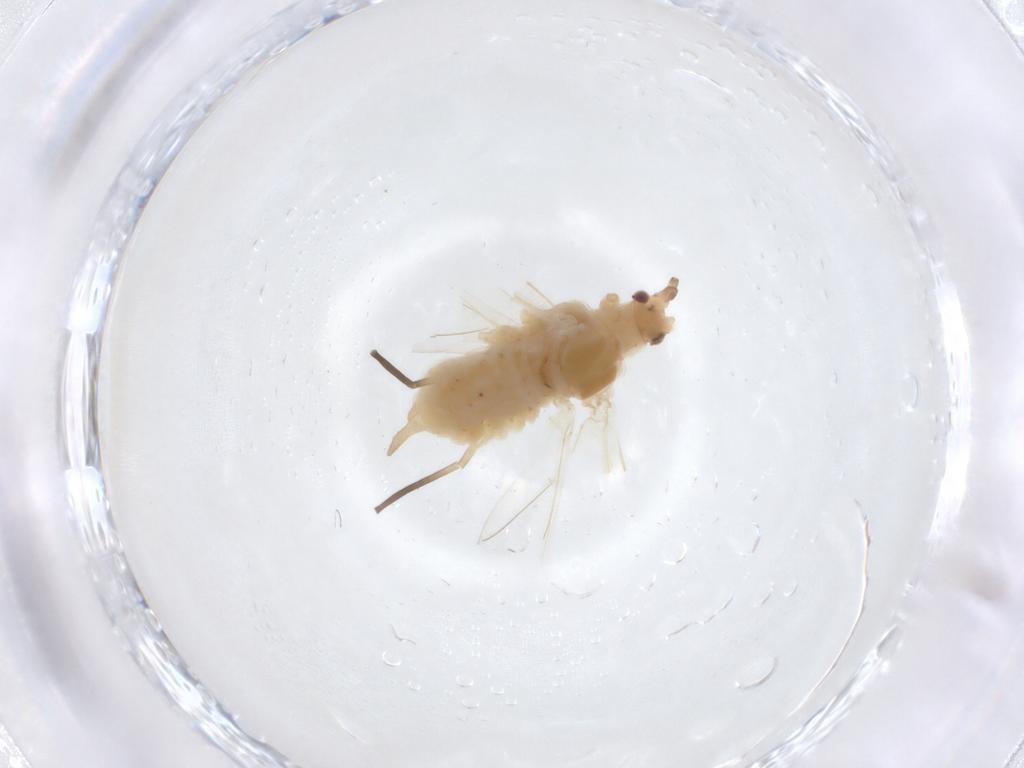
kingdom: Animalia
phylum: Arthropoda
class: Insecta
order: Hemiptera
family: Aphididae
